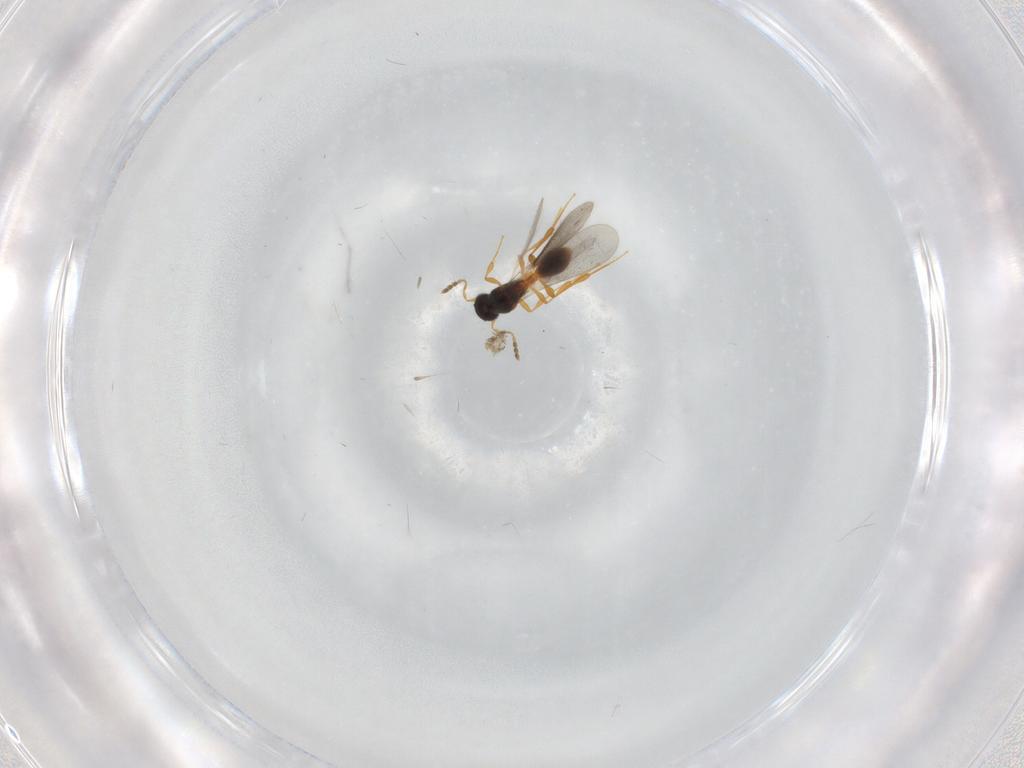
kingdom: Animalia
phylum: Arthropoda
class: Insecta
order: Hymenoptera
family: Platygastridae
